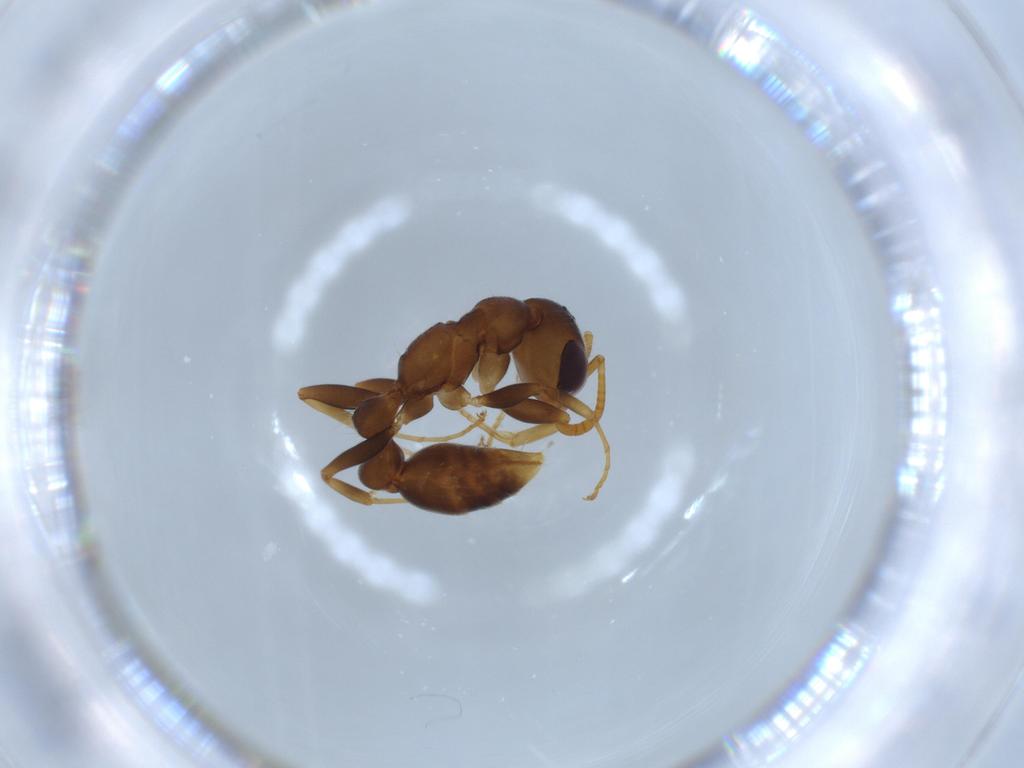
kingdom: Animalia
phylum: Arthropoda
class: Insecta
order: Hymenoptera
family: Formicidae
